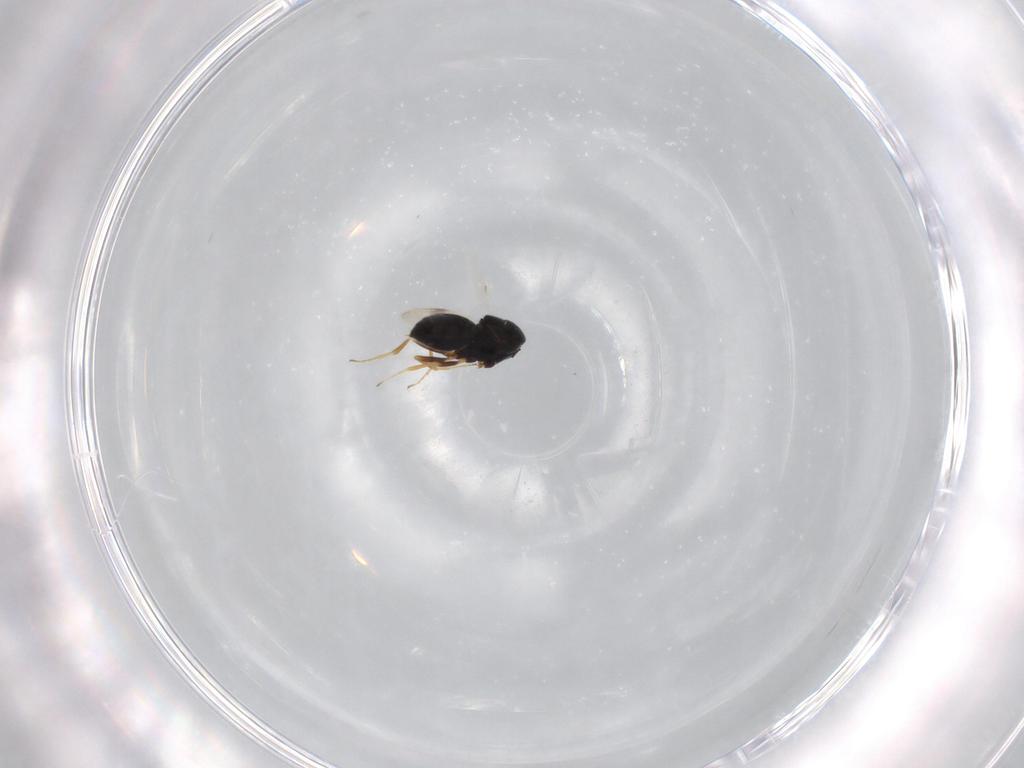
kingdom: Animalia
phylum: Arthropoda
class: Insecta
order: Hymenoptera
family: Scelionidae
